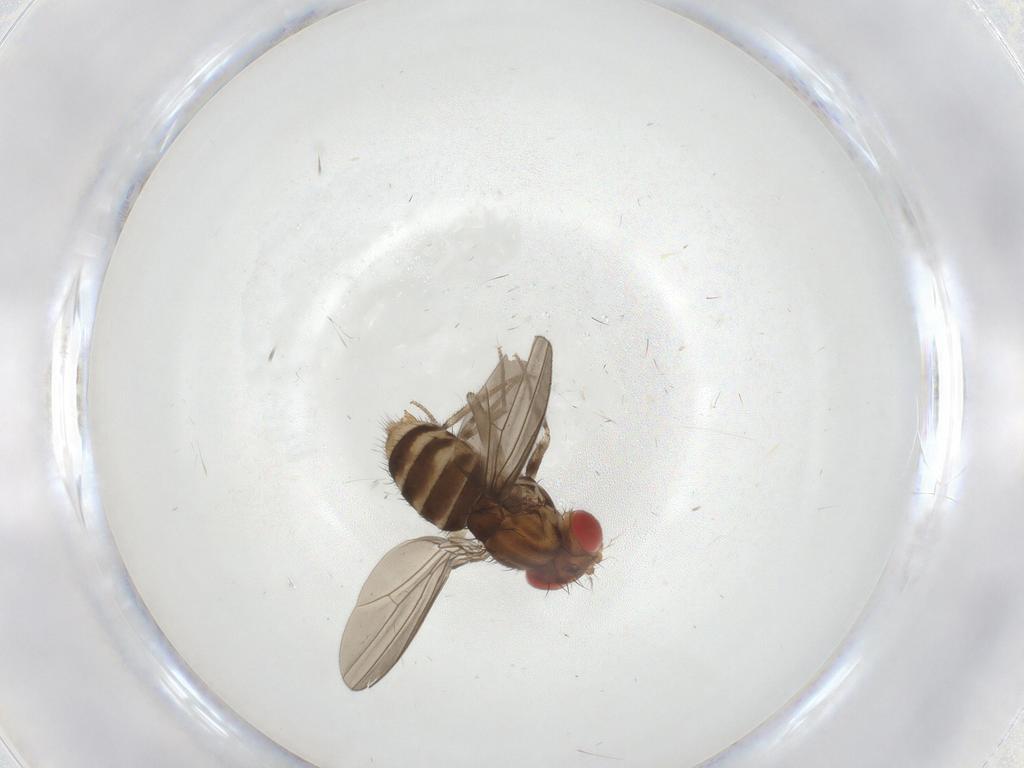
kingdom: Animalia
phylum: Arthropoda
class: Insecta
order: Diptera
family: Drosophilidae
